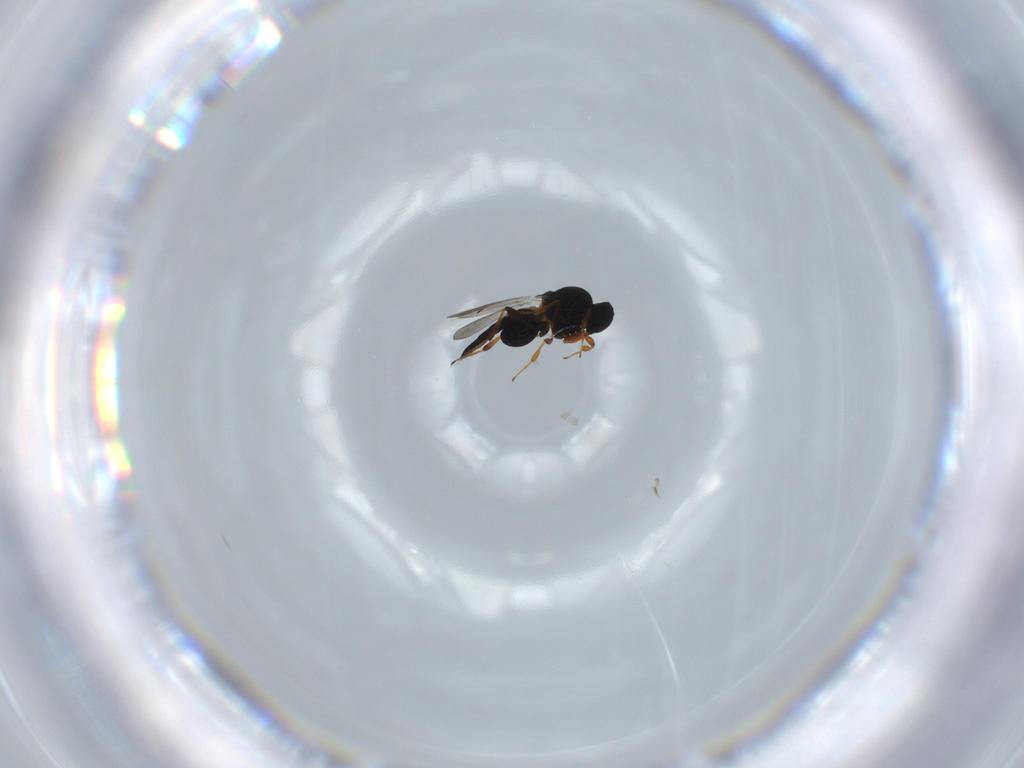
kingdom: Animalia
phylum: Arthropoda
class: Insecta
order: Hymenoptera
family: Platygastridae
